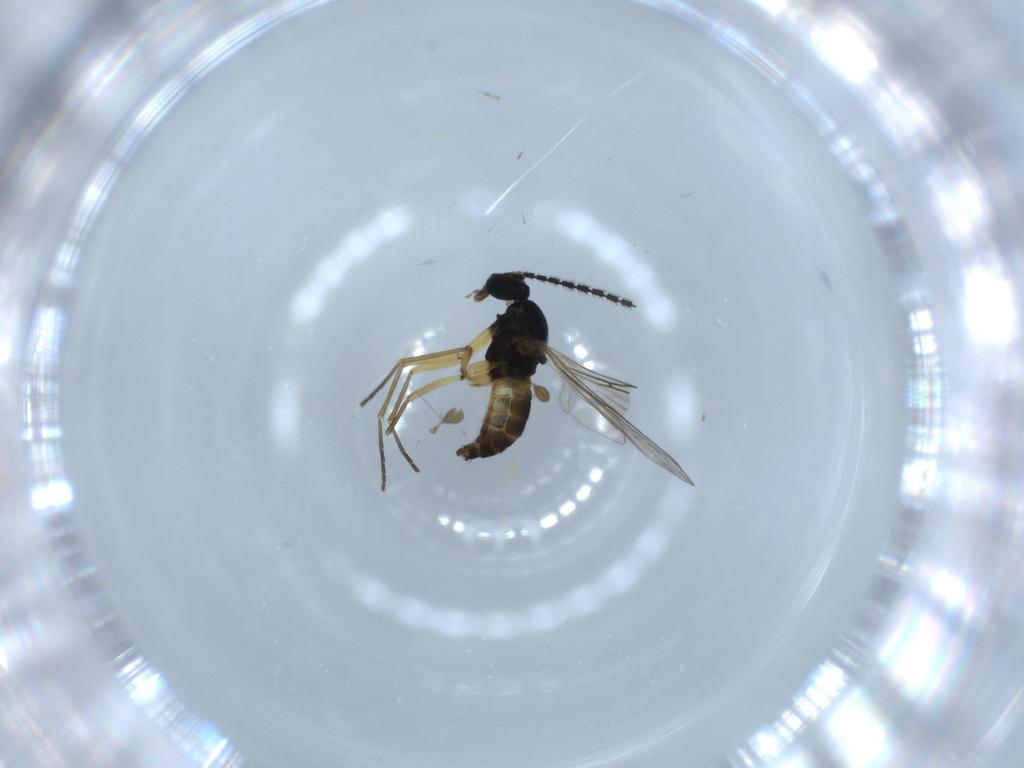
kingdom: Animalia
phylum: Arthropoda
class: Insecta
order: Diptera
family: Sciaridae
